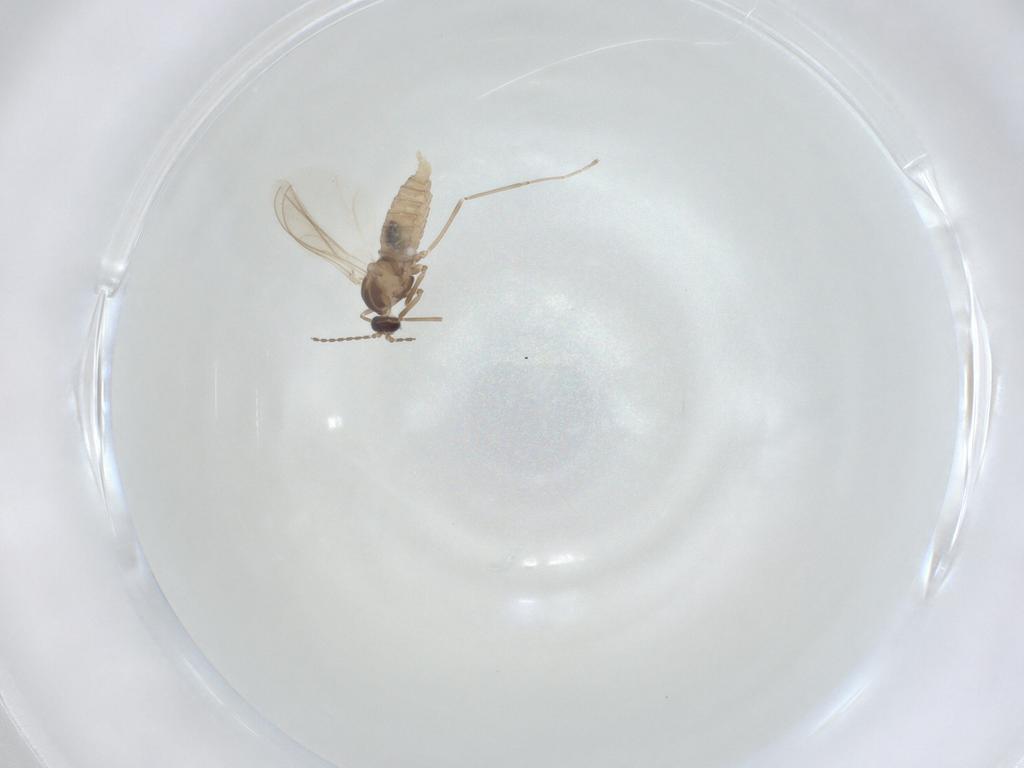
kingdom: Animalia
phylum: Arthropoda
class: Insecta
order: Diptera
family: Cecidomyiidae
